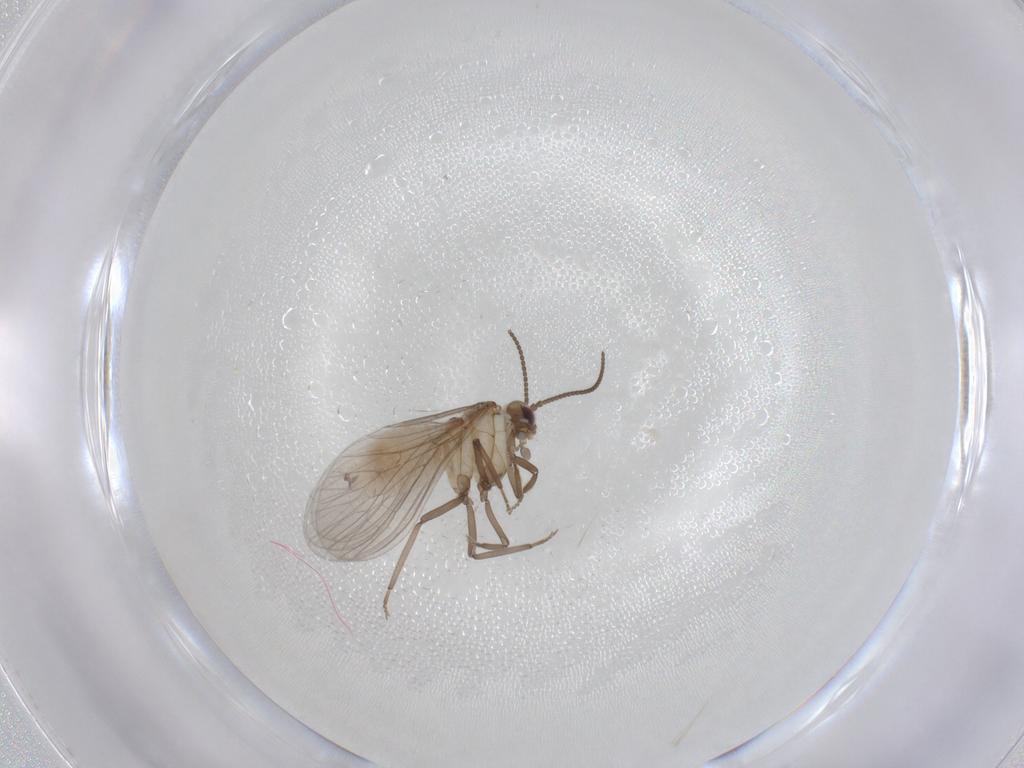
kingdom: Animalia
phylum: Arthropoda
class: Insecta
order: Neuroptera
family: Coniopterygidae
